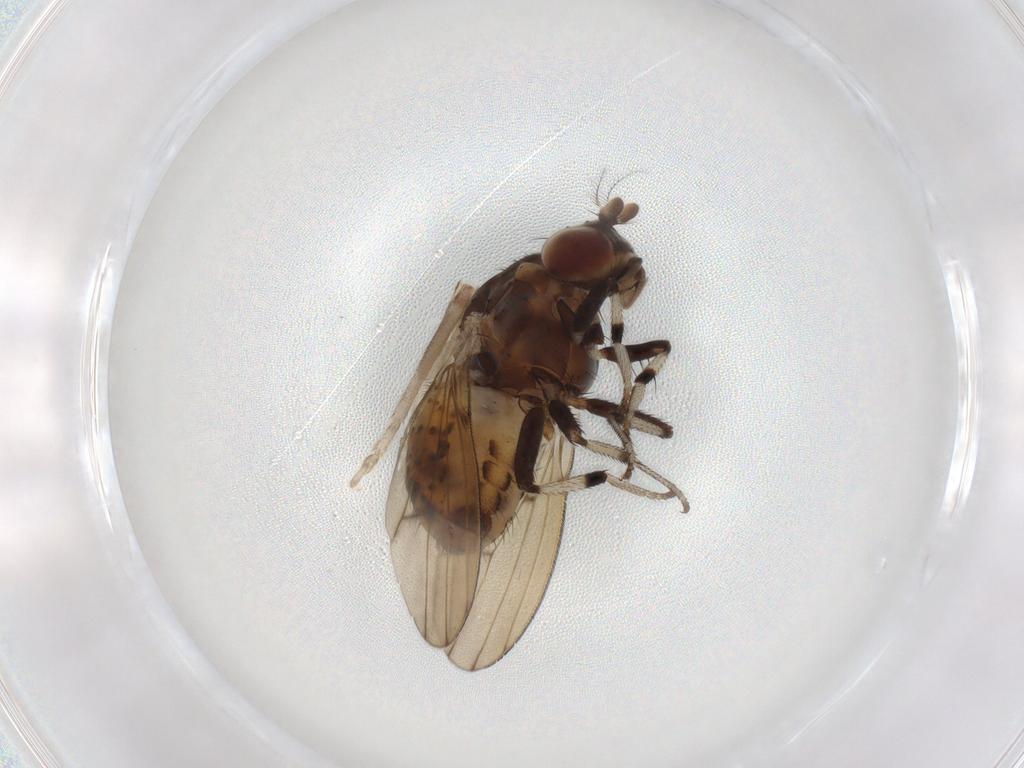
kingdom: Animalia
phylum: Arthropoda
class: Insecta
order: Diptera
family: Lauxaniidae
